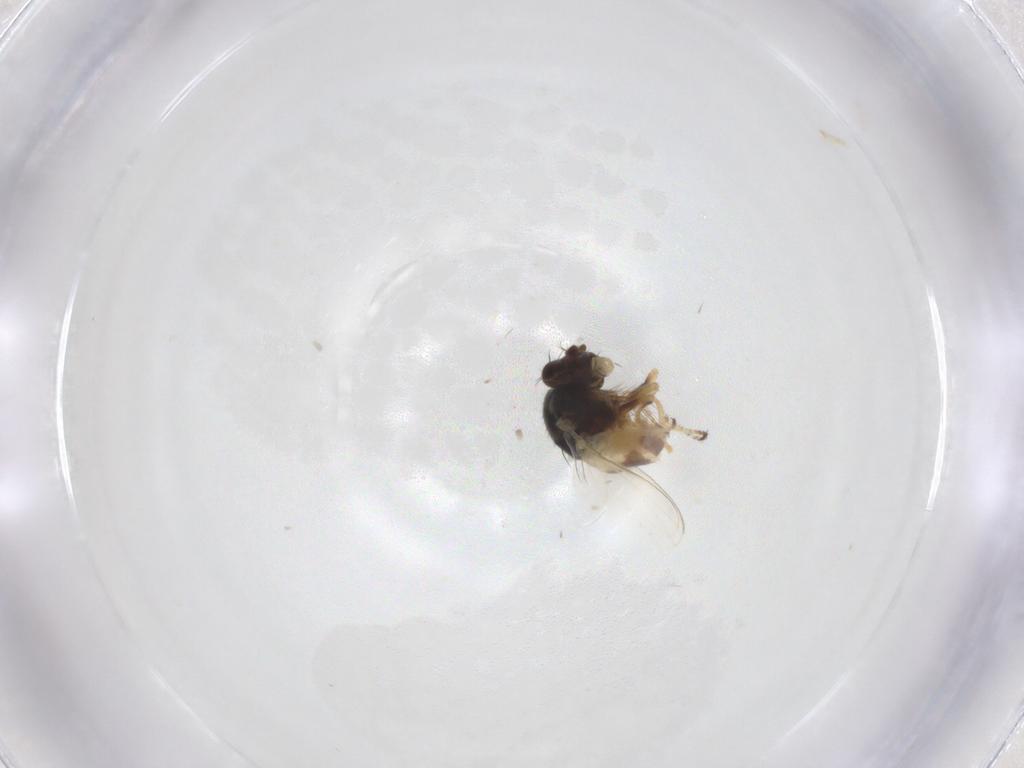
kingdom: Animalia
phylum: Arthropoda
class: Insecta
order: Diptera
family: Ephydridae
